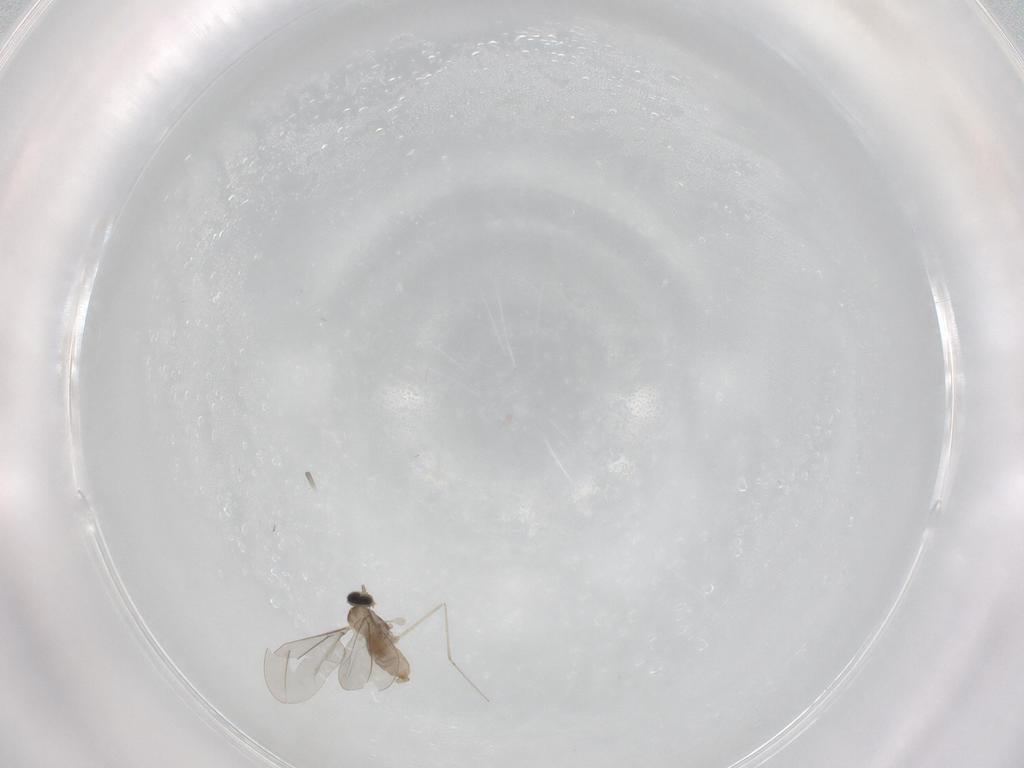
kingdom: Animalia
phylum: Arthropoda
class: Insecta
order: Diptera
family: Cecidomyiidae
